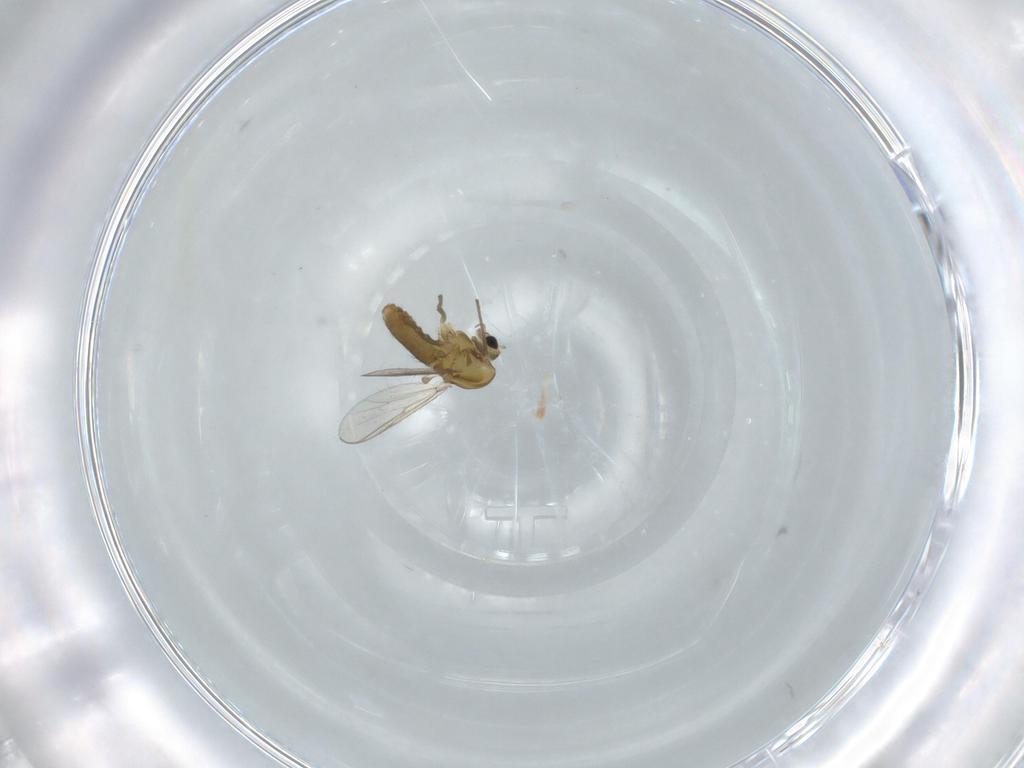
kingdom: Animalia
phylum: Arthropoda
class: Insecta
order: Diptera
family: Chironomidae
